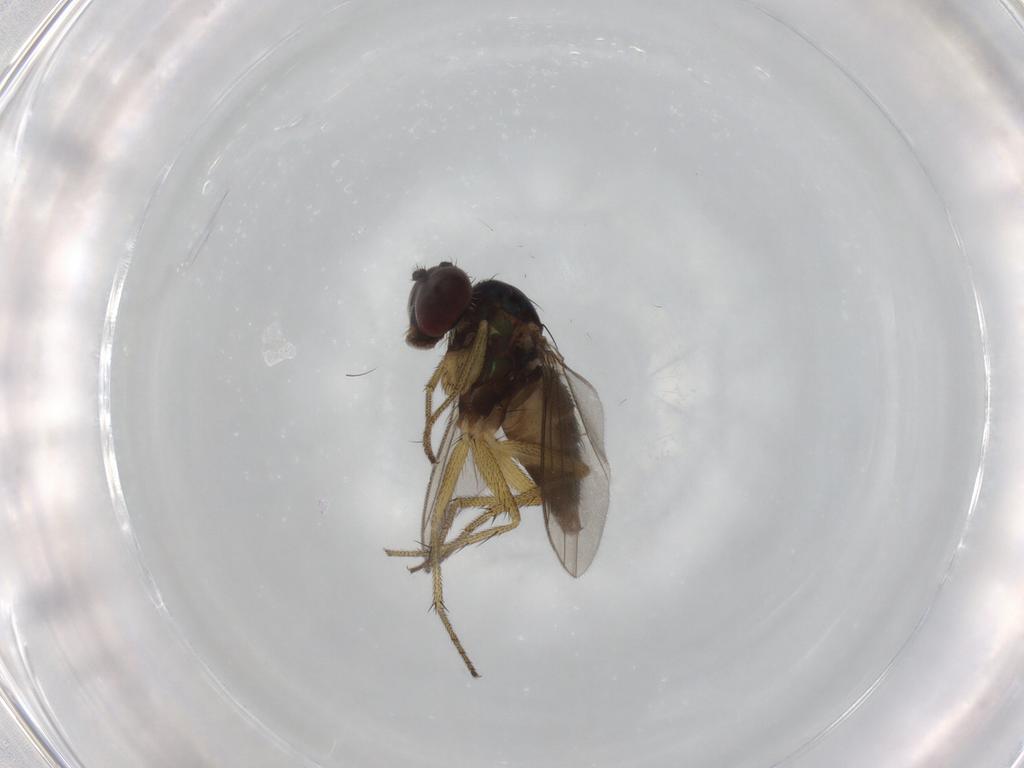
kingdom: Animalia
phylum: Arthropoda
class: Insecta
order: Diptera
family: Dolichopodidae
